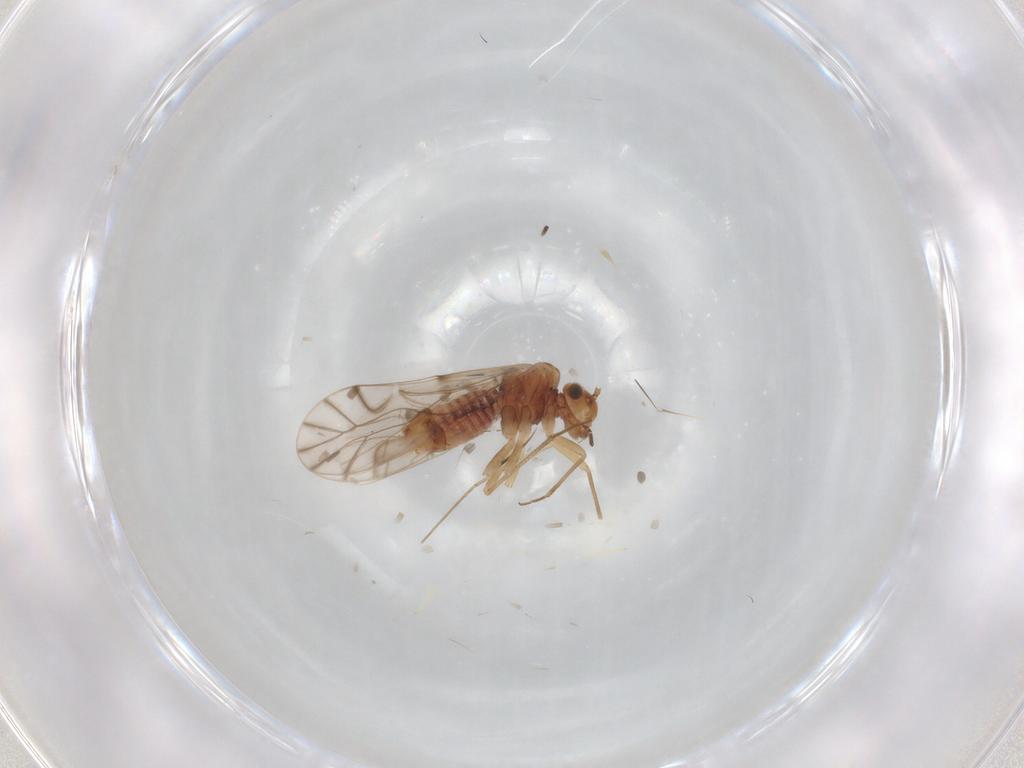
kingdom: Animalia
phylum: Arthropoda
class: Insecta
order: Psocodea
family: Lachesillidae
